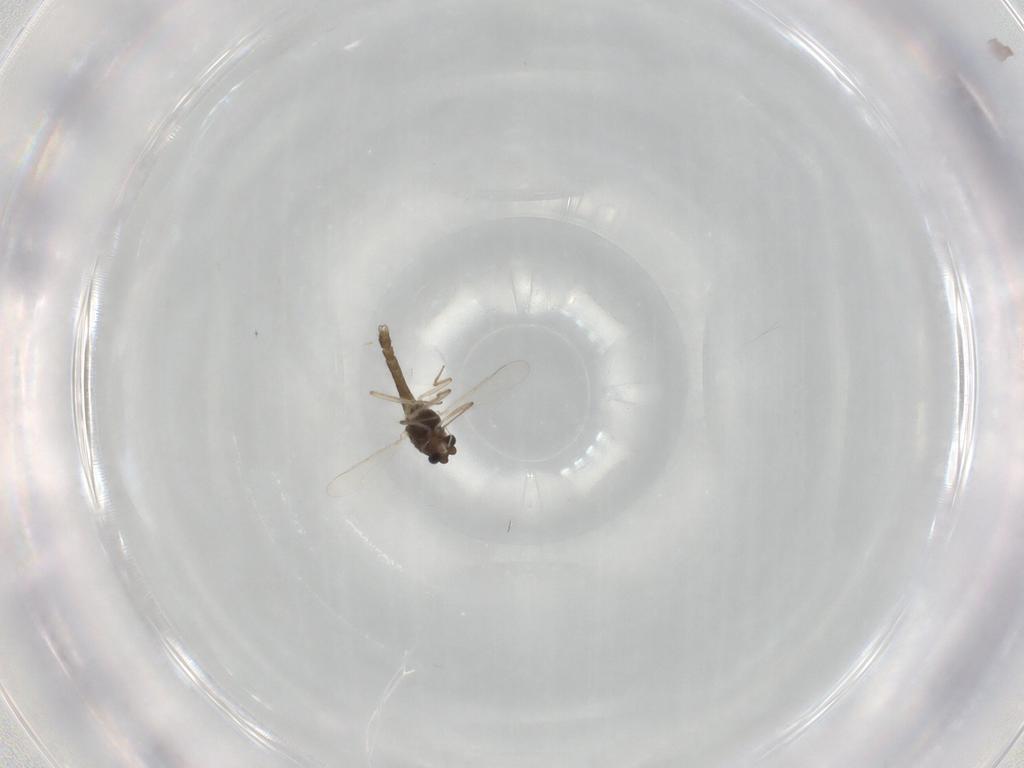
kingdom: Animalia
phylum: Arthropoda
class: Insecta
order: Diptera
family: Chironomidae
